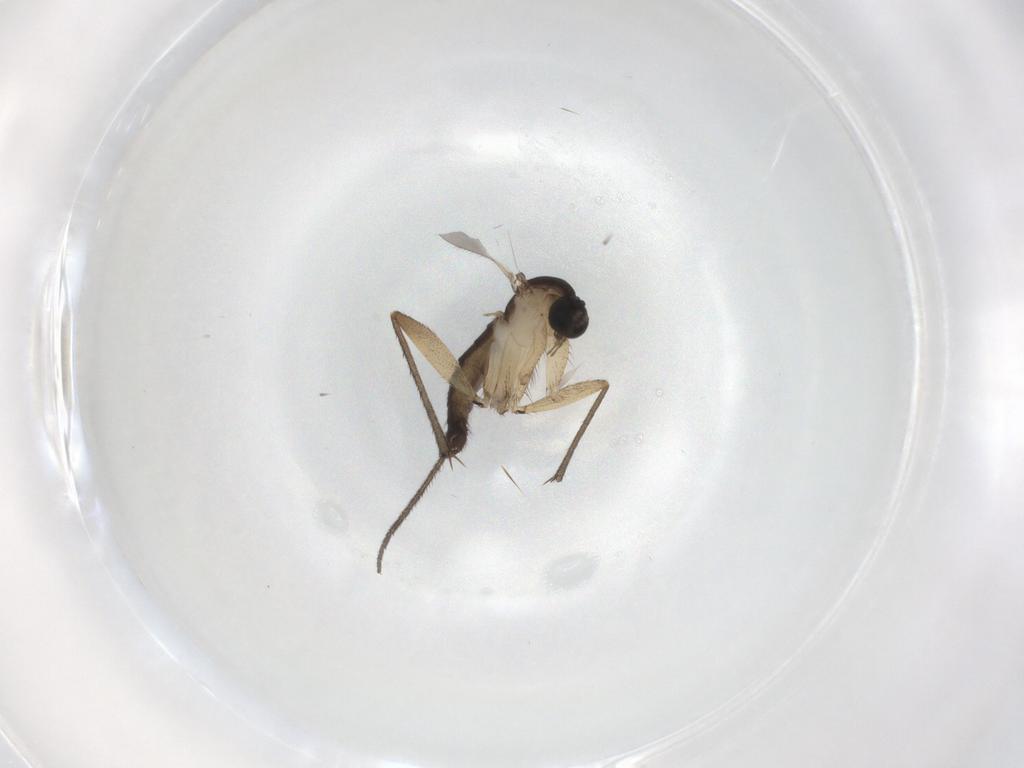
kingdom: Animalia
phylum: Arthropoda
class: Insecta
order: Diptera
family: Sciaridae
